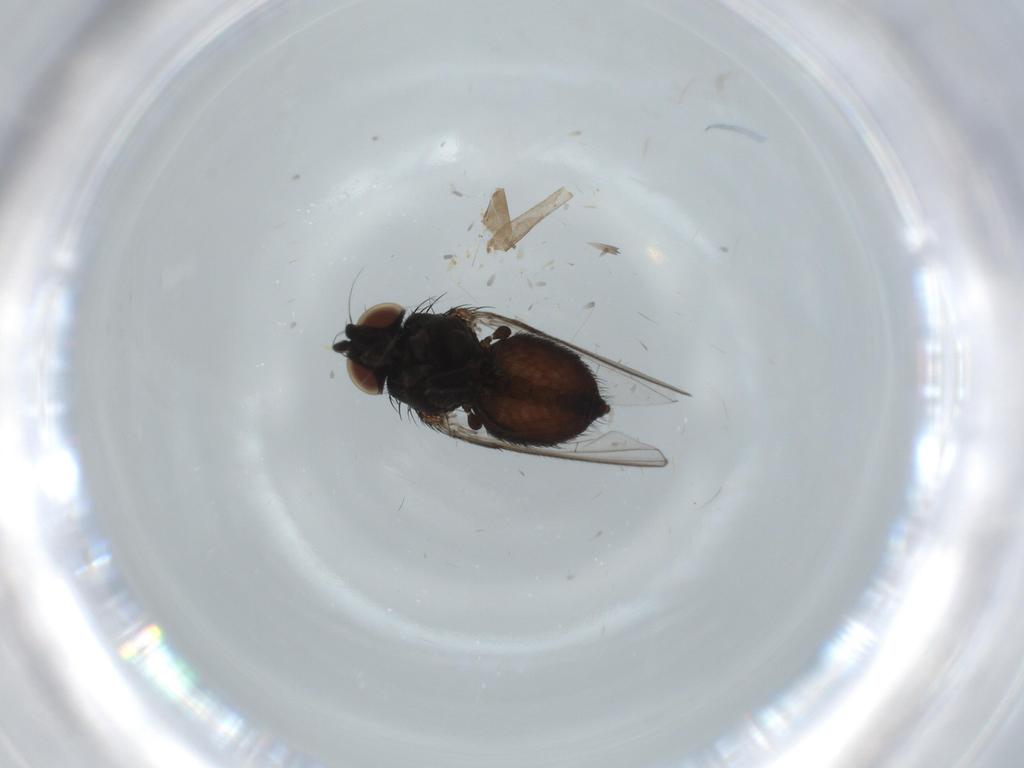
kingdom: Animalia
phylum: Arthropoda
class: Insecta
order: Diptera
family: Milichiidae
